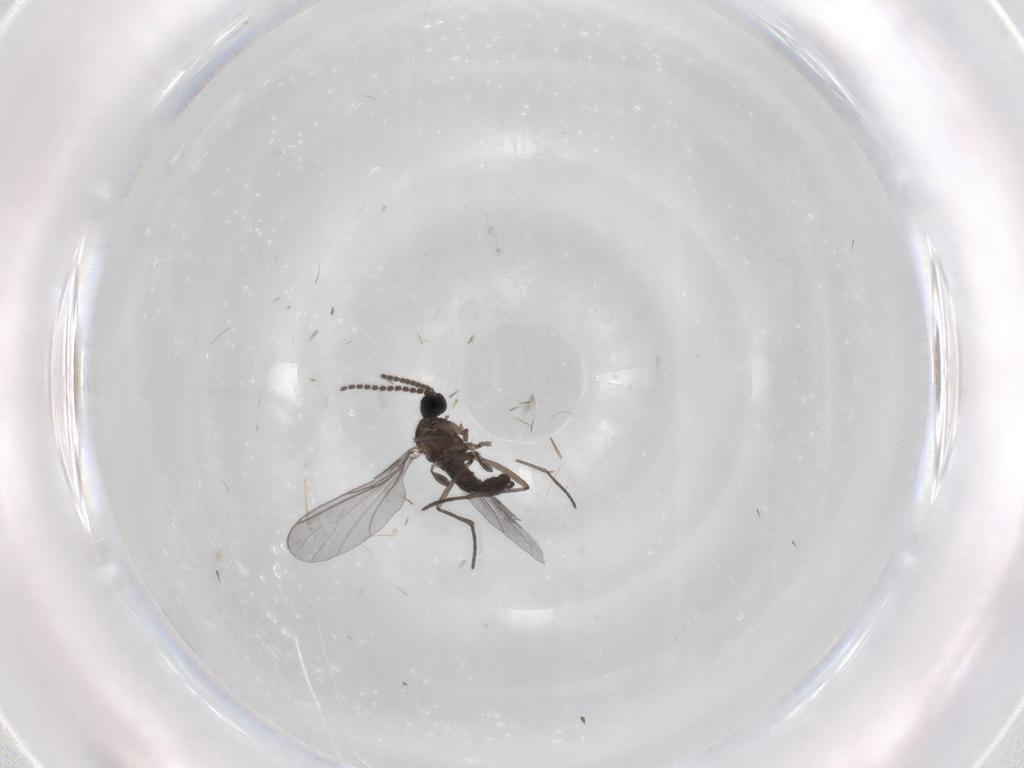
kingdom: Animalia
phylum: Arthropoda
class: Insecta
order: Diptera
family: Sciaridae
